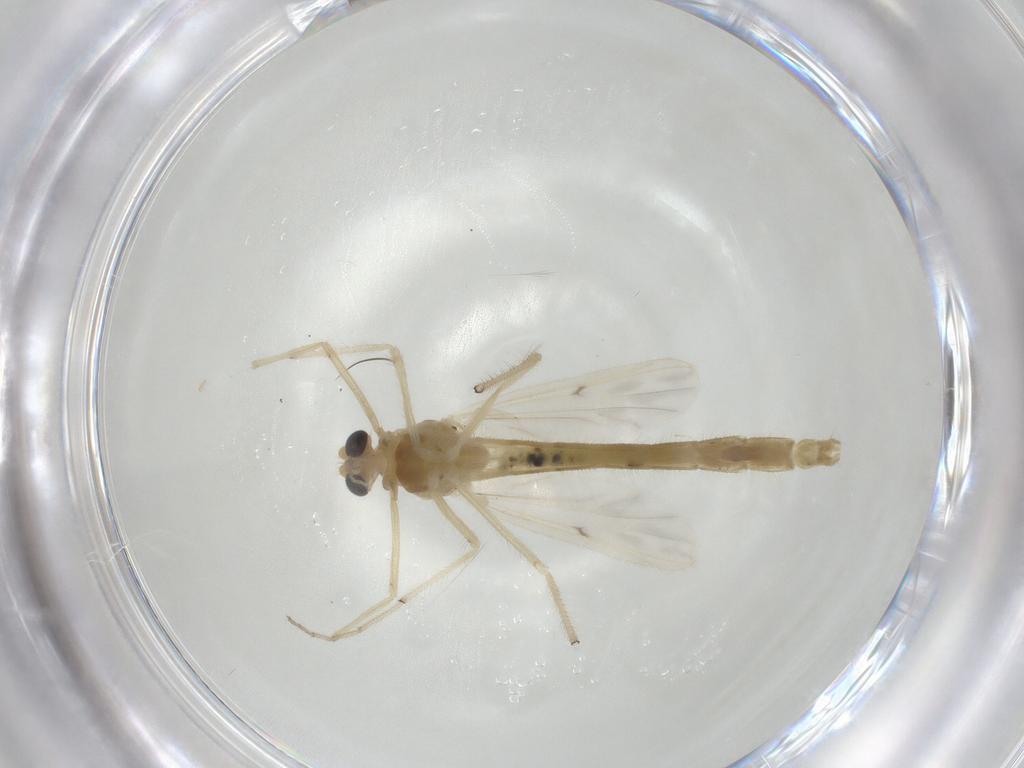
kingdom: Animalia
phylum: Arthropoda
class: Insecta
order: Diptera
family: Chironomidae
